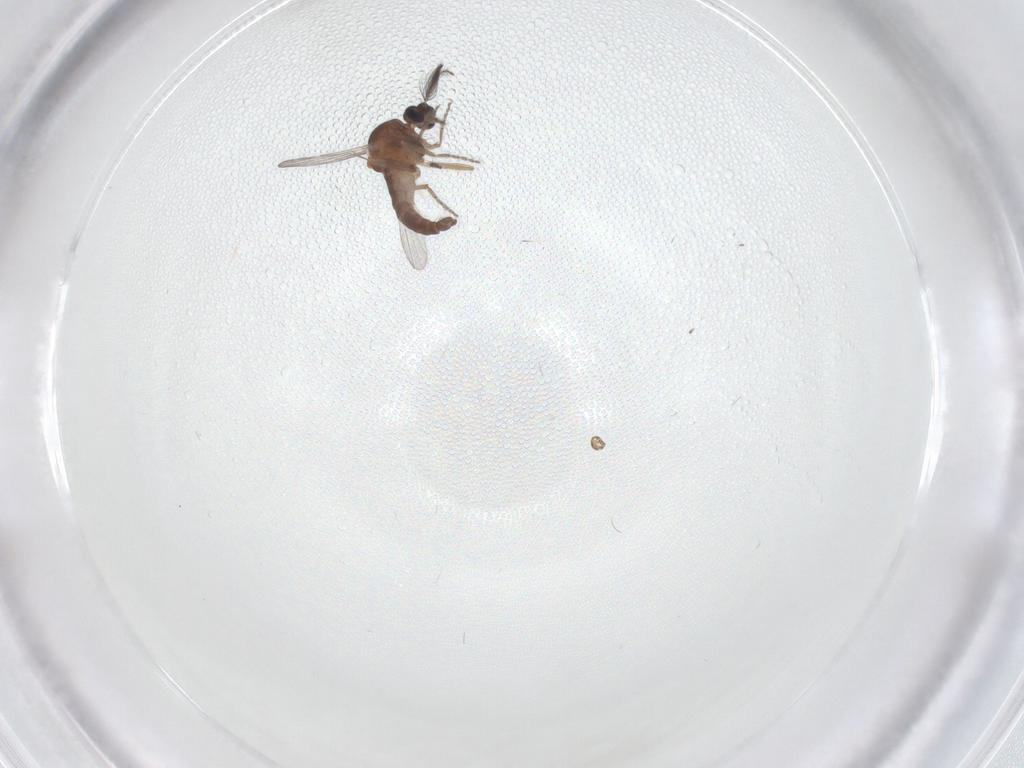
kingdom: Animalia
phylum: Arthropoda
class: Insecta
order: Diptera
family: Ceratopogonidae
